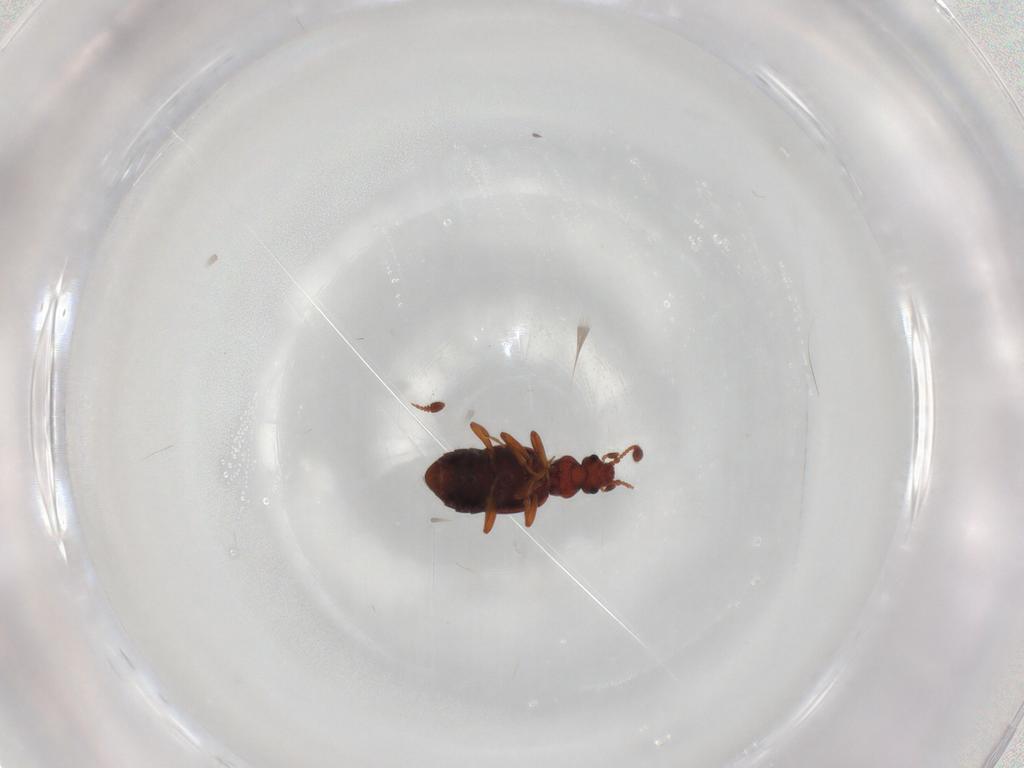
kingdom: Animalia
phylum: Arthropoda
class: Insecta
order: Coleoptera
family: Staphylinidae
